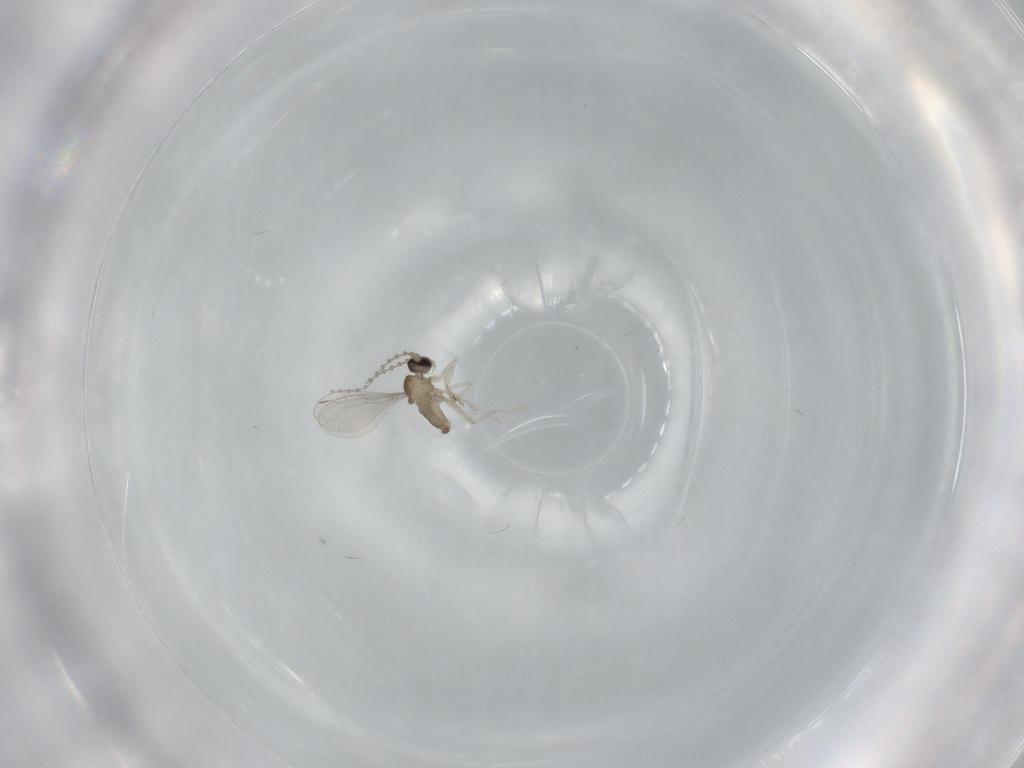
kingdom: Animalia
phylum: Arthropoda
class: Insecta
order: Diptera
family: Cecidomyiidae
